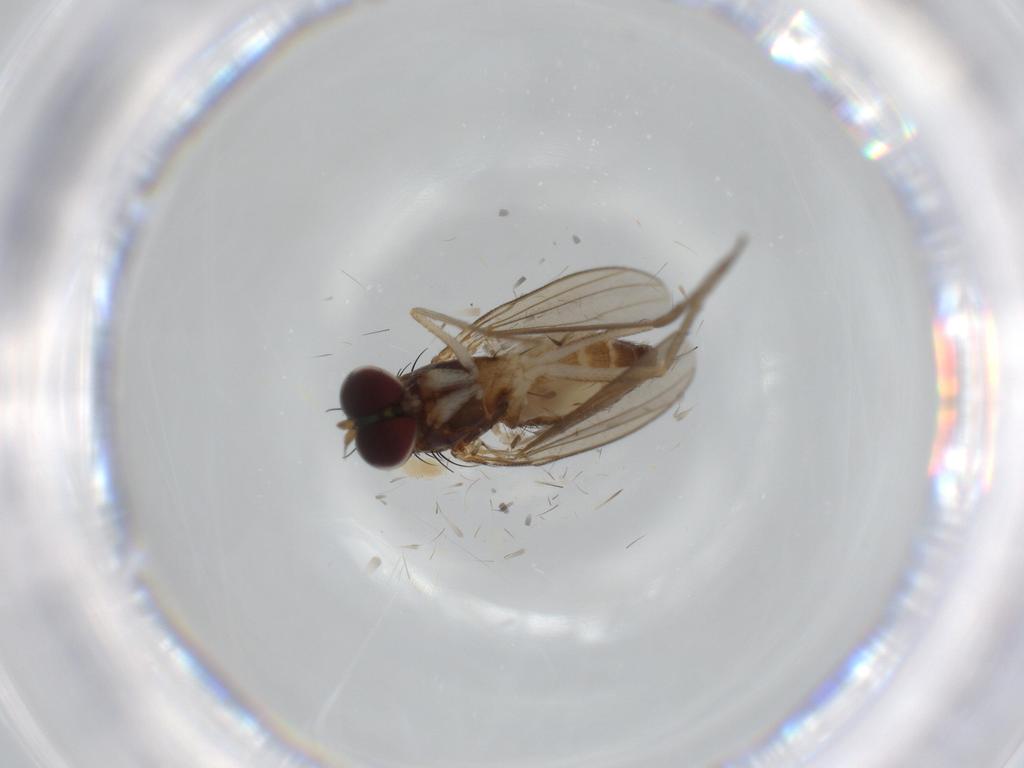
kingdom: Animalia
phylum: Arthropoda
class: Insecta
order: Diptera
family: Dolichopodidae
